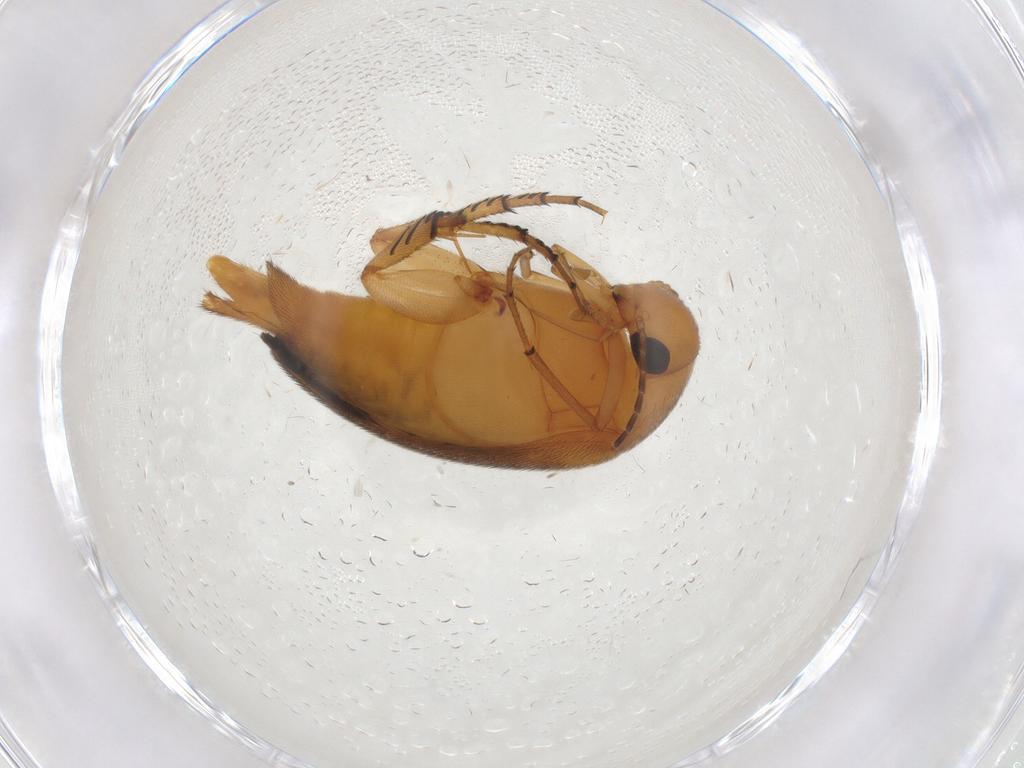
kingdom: Animalia
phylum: Arthropoda
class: Insecta
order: Coleoptera
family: Mordellidae
